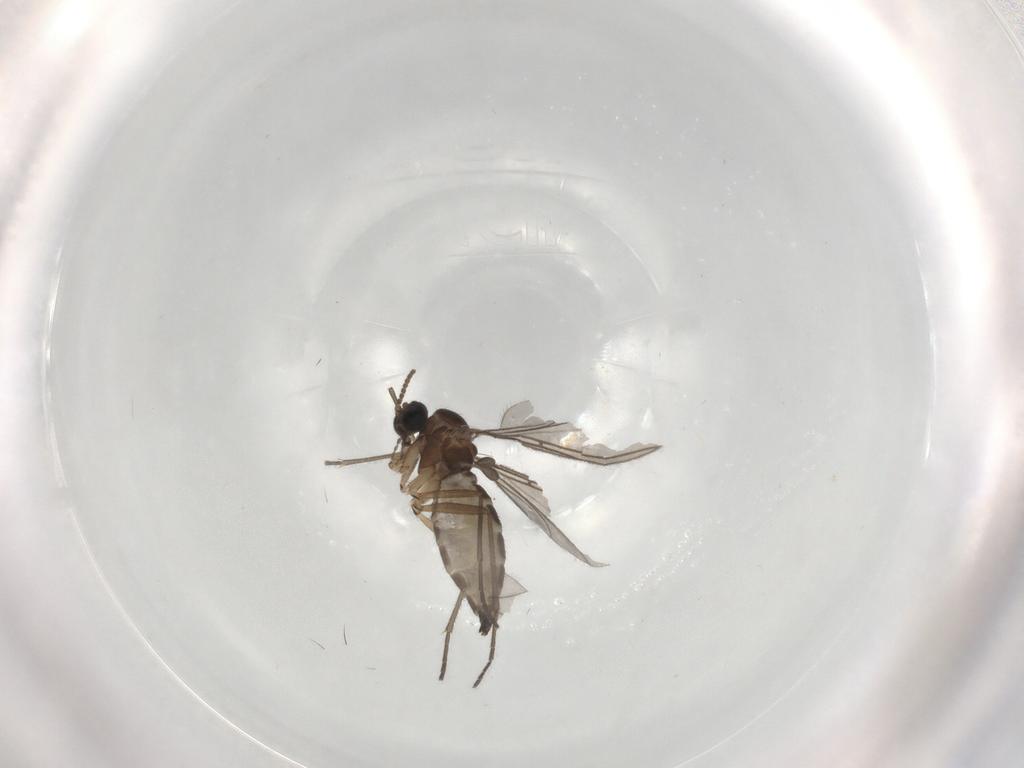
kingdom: Animalia
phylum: Arthropoda
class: Insecta
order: Diptera
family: Sciaridae
